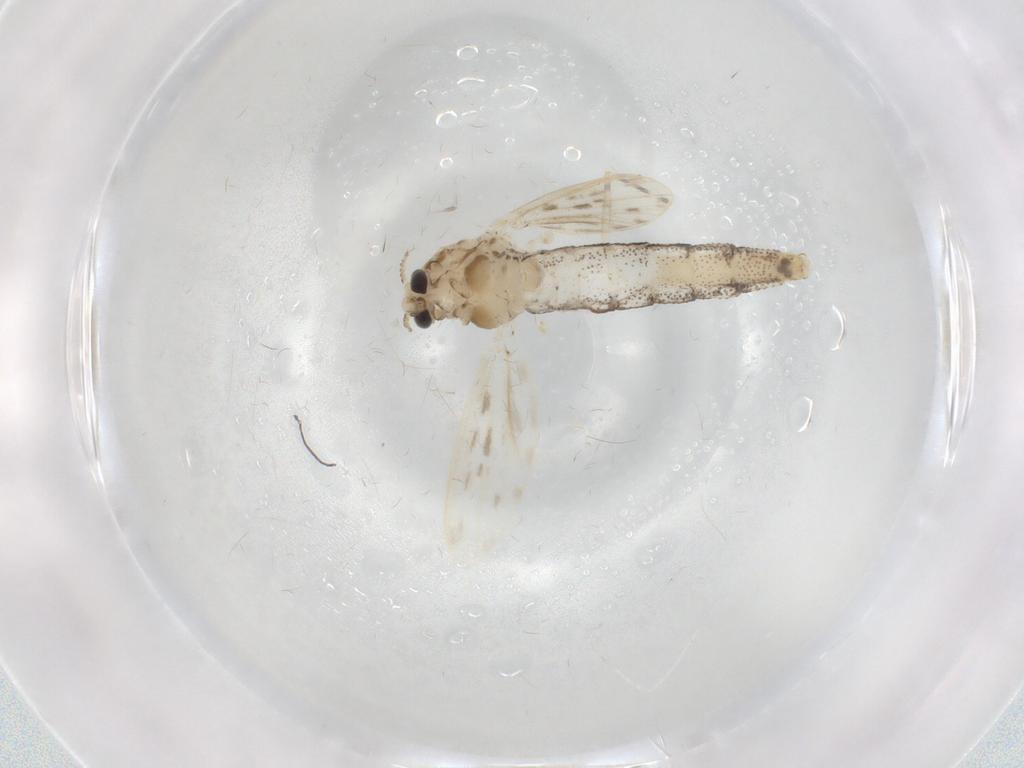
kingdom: Animalia
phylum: Arthropoda
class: Insecta
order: Diptera
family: Chaoboridae
